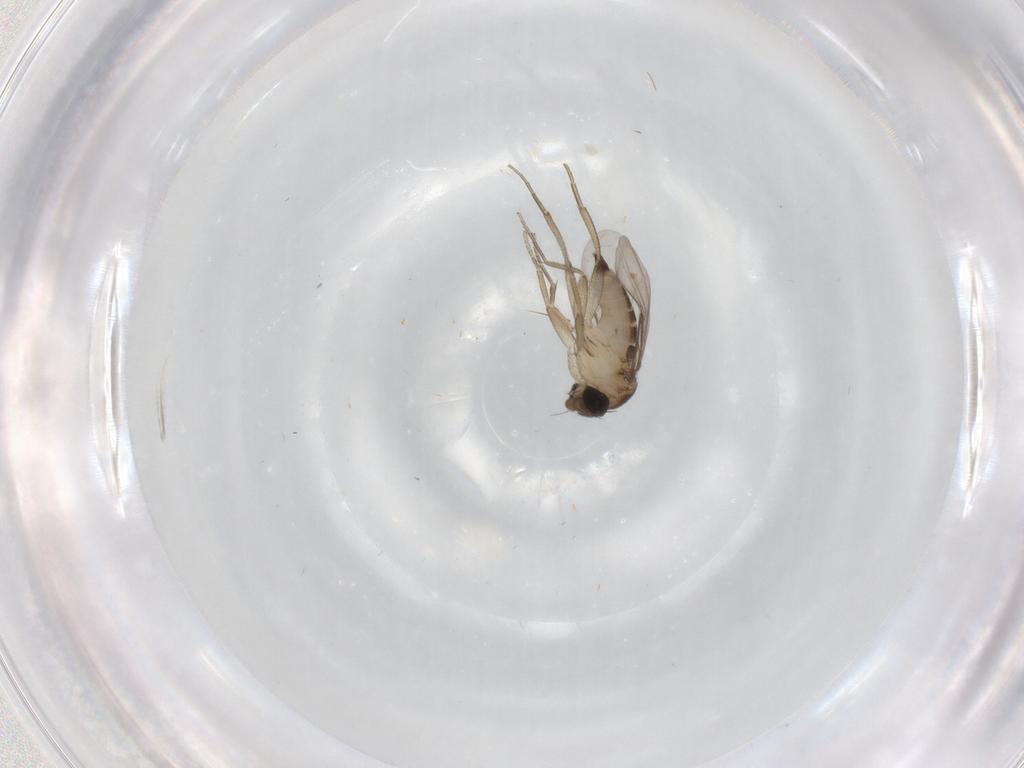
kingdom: Animalia
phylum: Arthropoda
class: Insecta
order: Diptera
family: Phoridae
